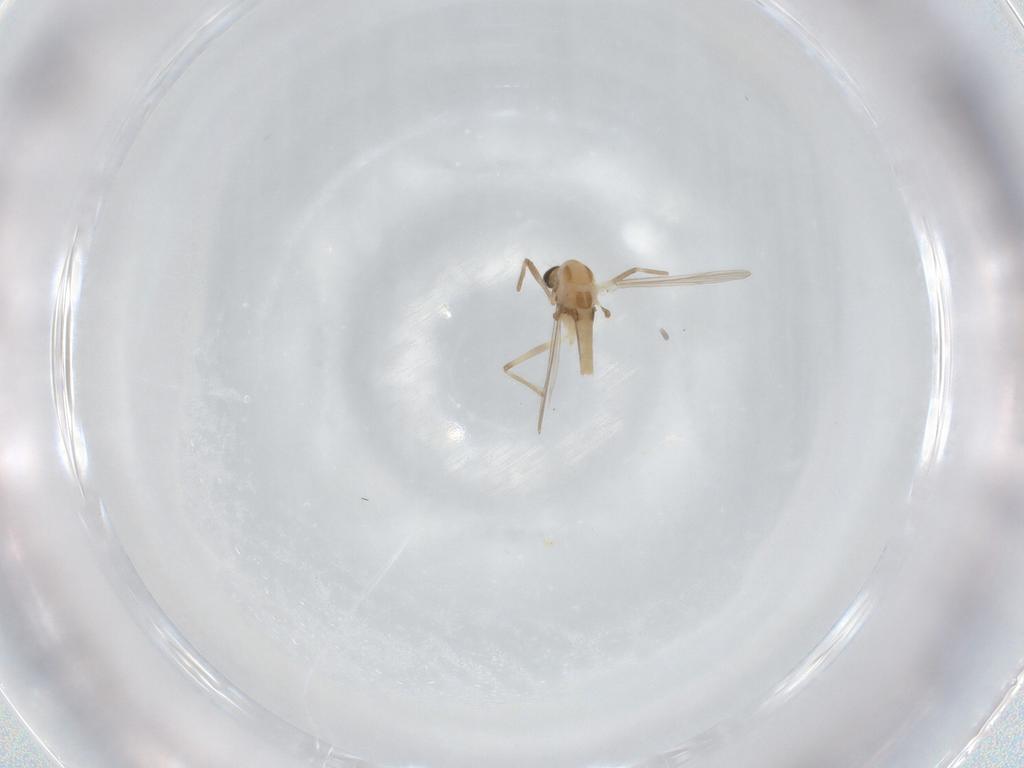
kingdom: Animalia
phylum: Arthropoda
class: Insecta
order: Diptera
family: Chironomidae
